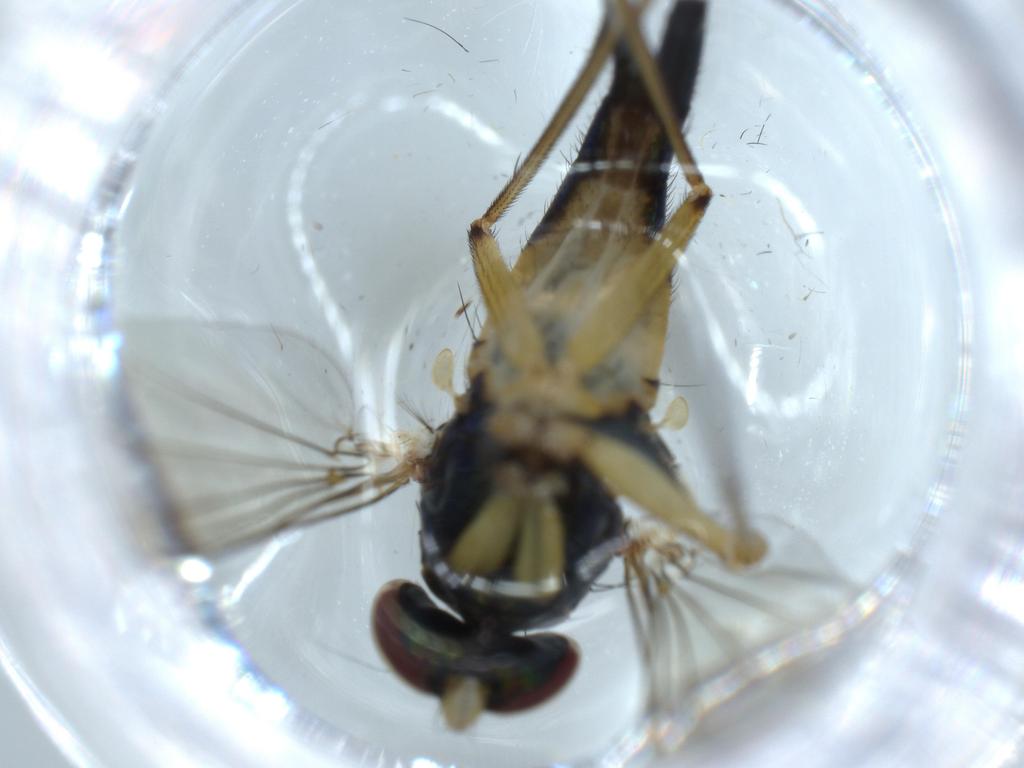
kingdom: Animalia
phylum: Arthropoda
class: Insecta
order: Diptera
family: Dolichopodidae
